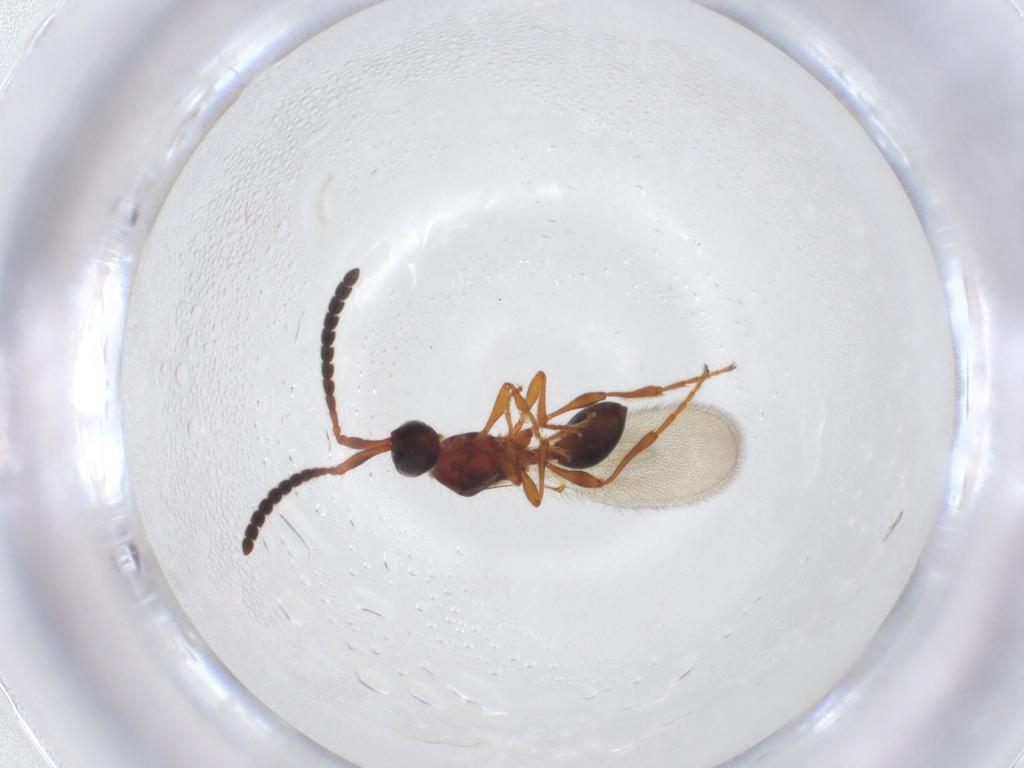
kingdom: Animalia
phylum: Arthropoda
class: Insecta
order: Hymenoptera
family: Diapriidae
